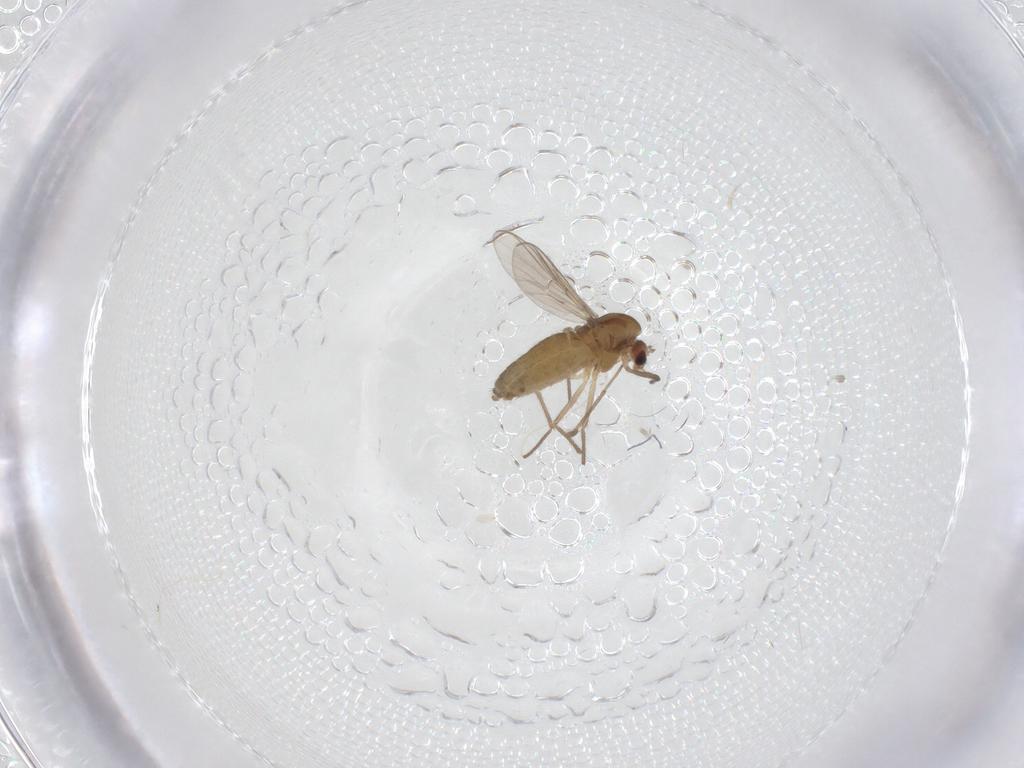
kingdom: Animalia
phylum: Arthropoda
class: Insecta
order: Diptera
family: Chironomidae
